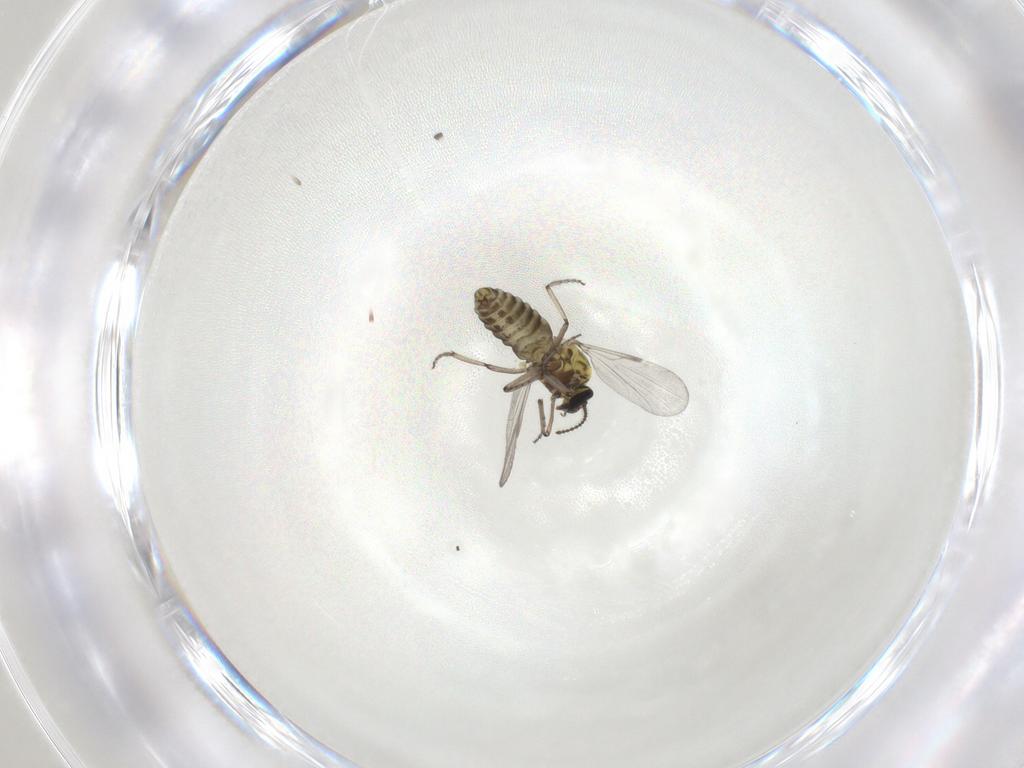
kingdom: Animalia
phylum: Arthropoda
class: Insecta
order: Diptera
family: Ceratopogonidae
